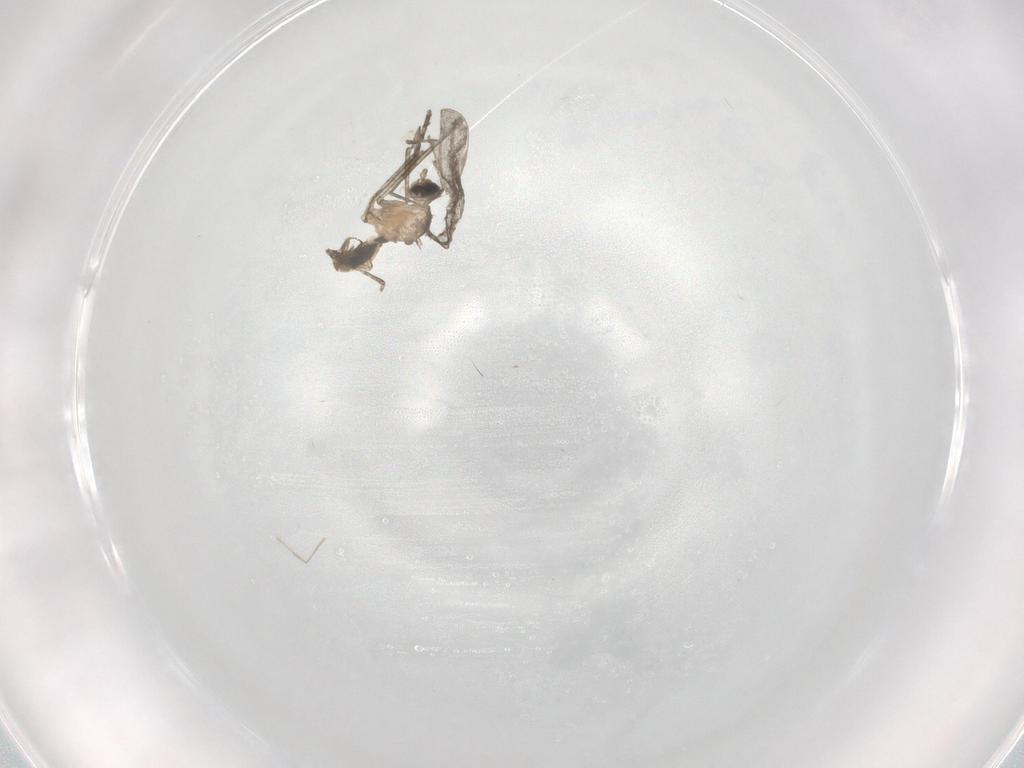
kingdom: Animalia
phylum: Arthropoda
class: Insecta
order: Diptera
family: Cecidomyiidae
